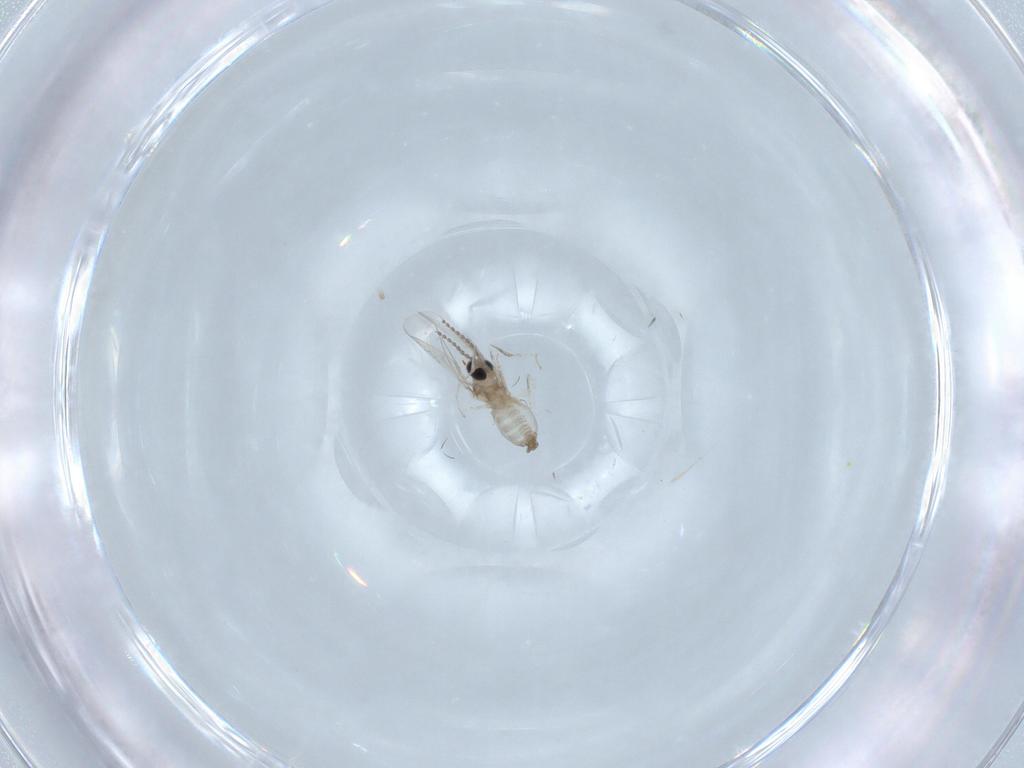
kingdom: Animalia
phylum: Arthropoda
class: Insecta
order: Diptera
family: Cecidomyiidae
